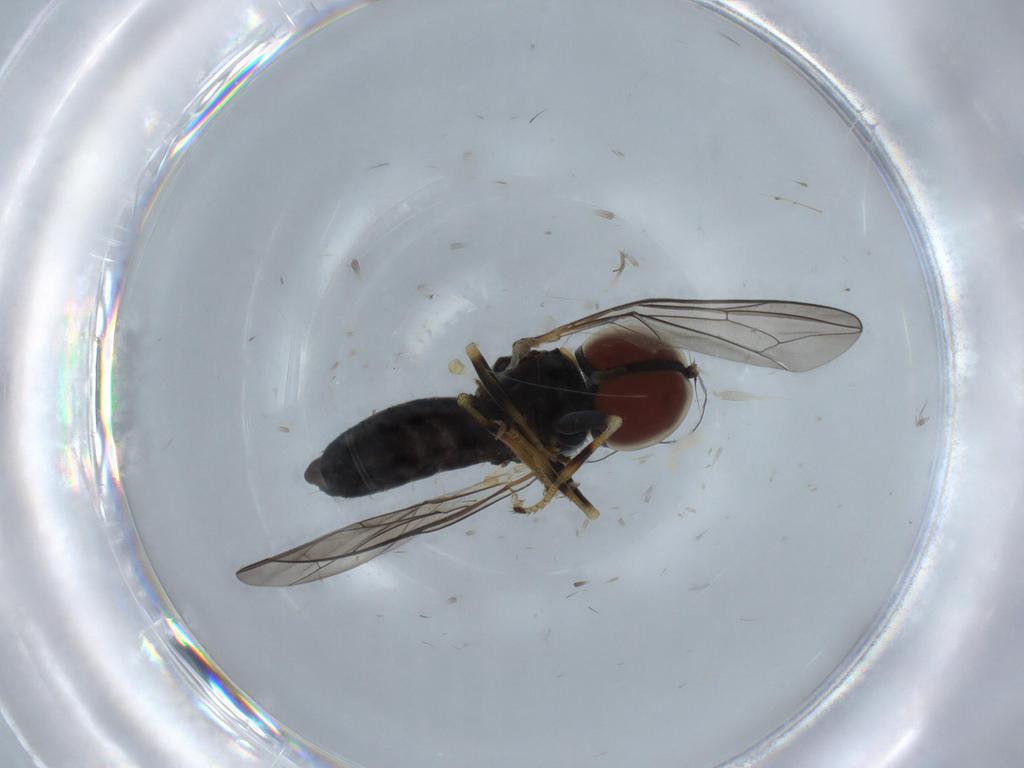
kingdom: Animalia
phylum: Arthropoda
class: Insecta
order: Diptera
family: Pipunculidae
